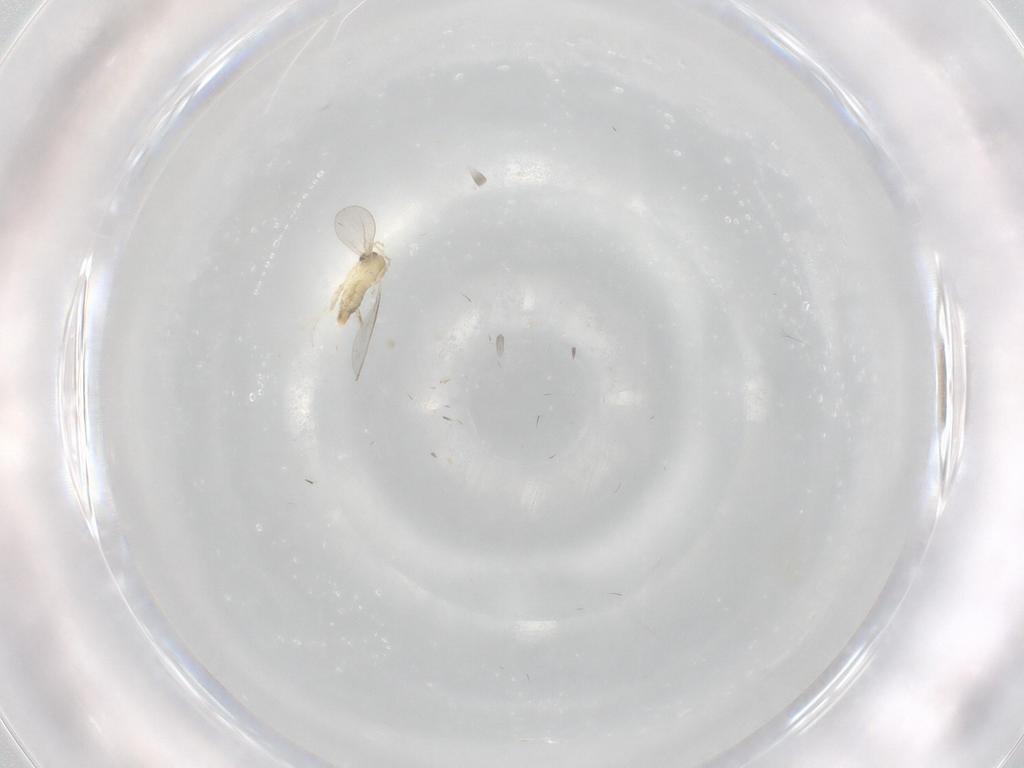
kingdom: Animalia
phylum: Arthropoda
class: Insecta
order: Diptera
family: Cecidomyiidae
